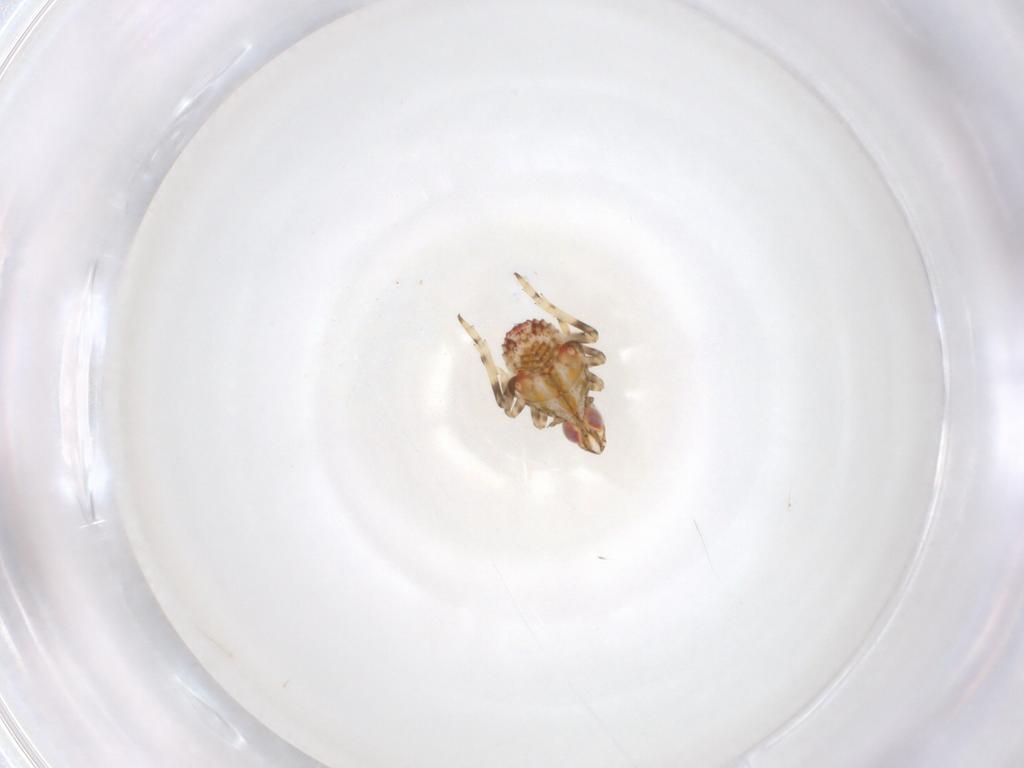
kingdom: Animalia
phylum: Arthropoda
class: Insecta
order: Hemiptera
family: Tropiduchidae
